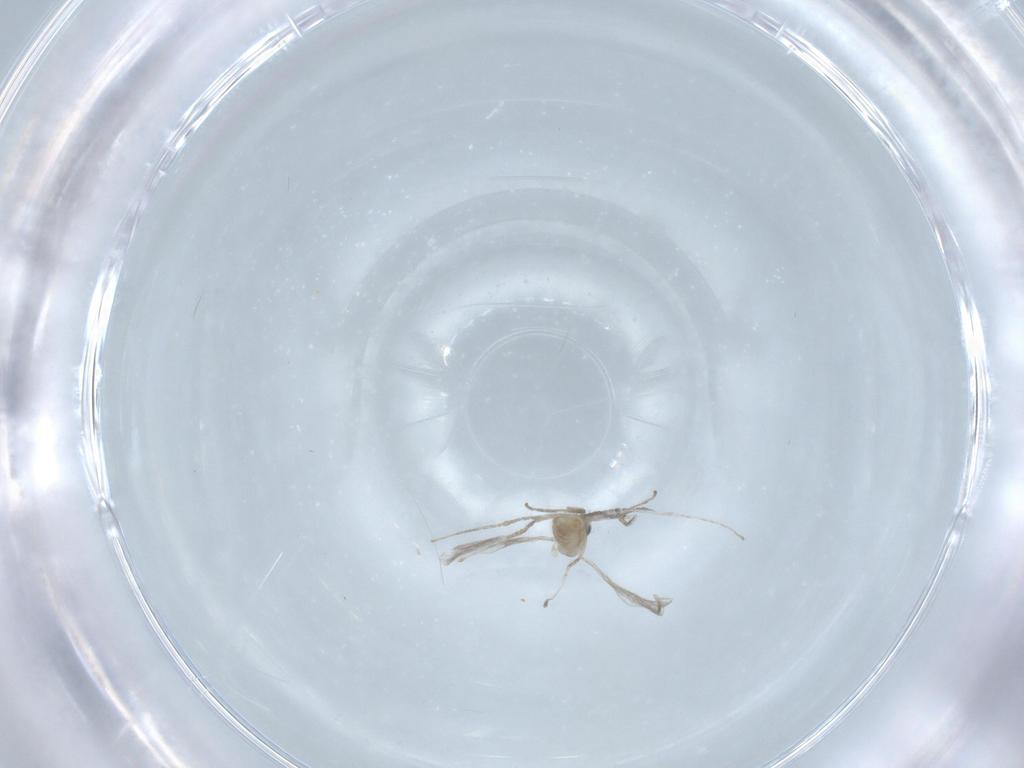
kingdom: Animalia
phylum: Arthropoda
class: Insecta
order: Diptera
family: Cecidomyiidae
